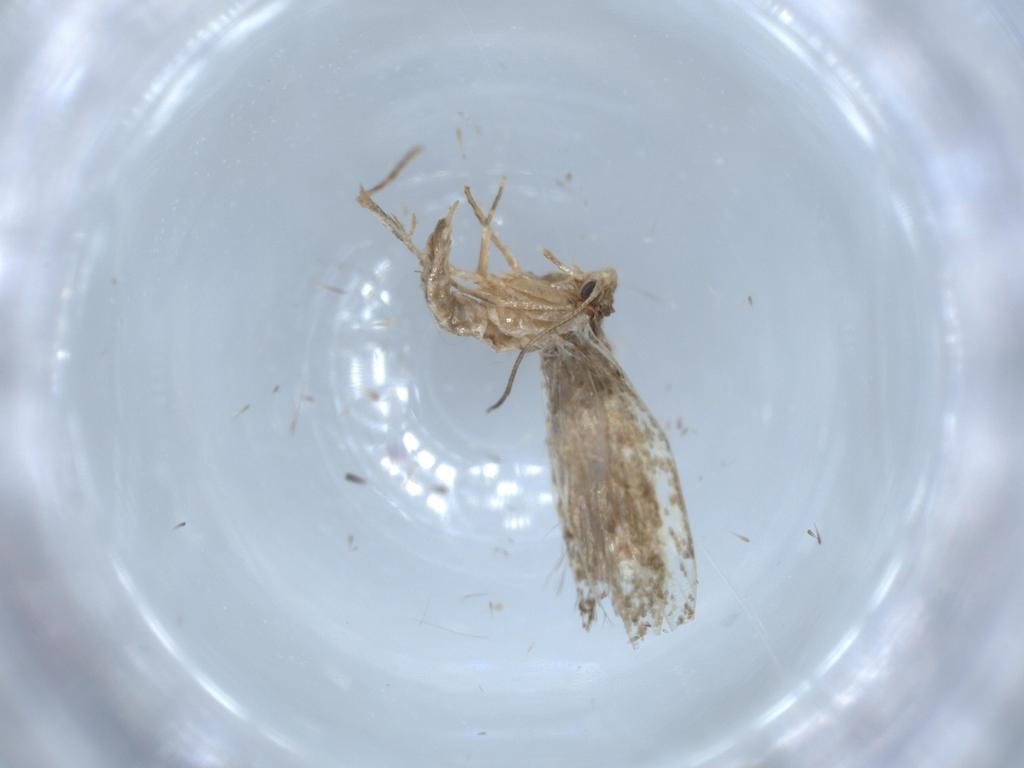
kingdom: Animalia
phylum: Arthropoda
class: Insecta
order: Lepidoptera
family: Tineidae
